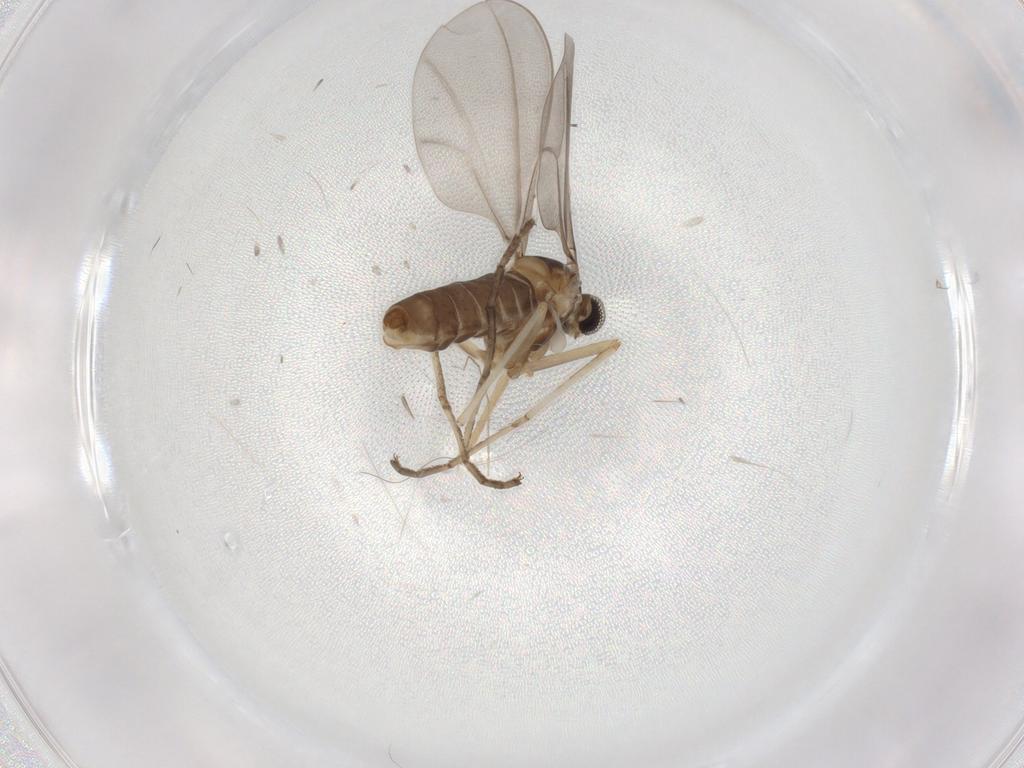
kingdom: Animalia
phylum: Arthropoda
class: Insecta
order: Diptera
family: Cecidomyiidae
